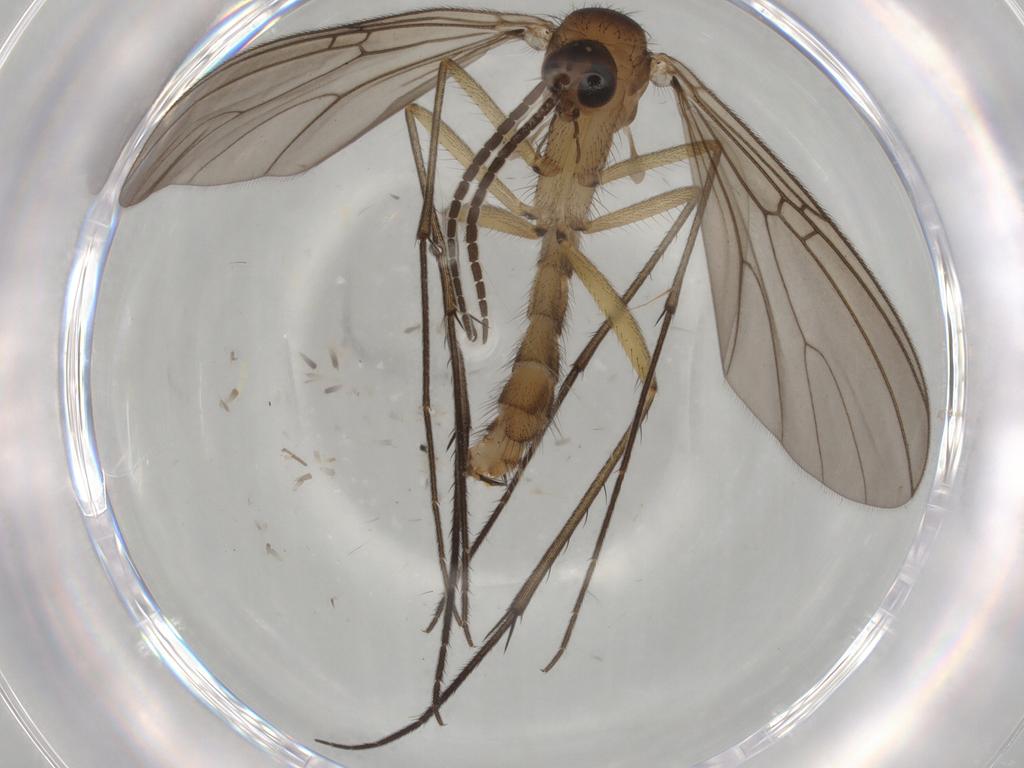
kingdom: Animalia
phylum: Arthropoda
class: Insecta
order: Diptera
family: Mycetophilidae
